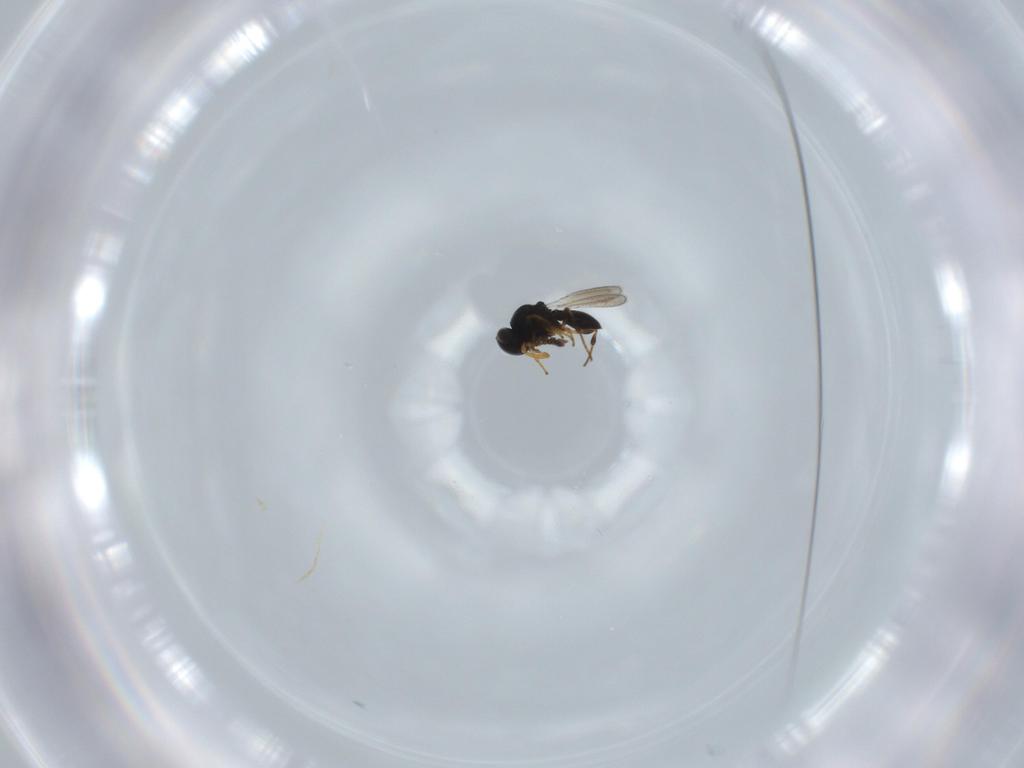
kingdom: Animalia
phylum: Arthropoda
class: Insecta
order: Hymenoptera
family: Platygastridae
